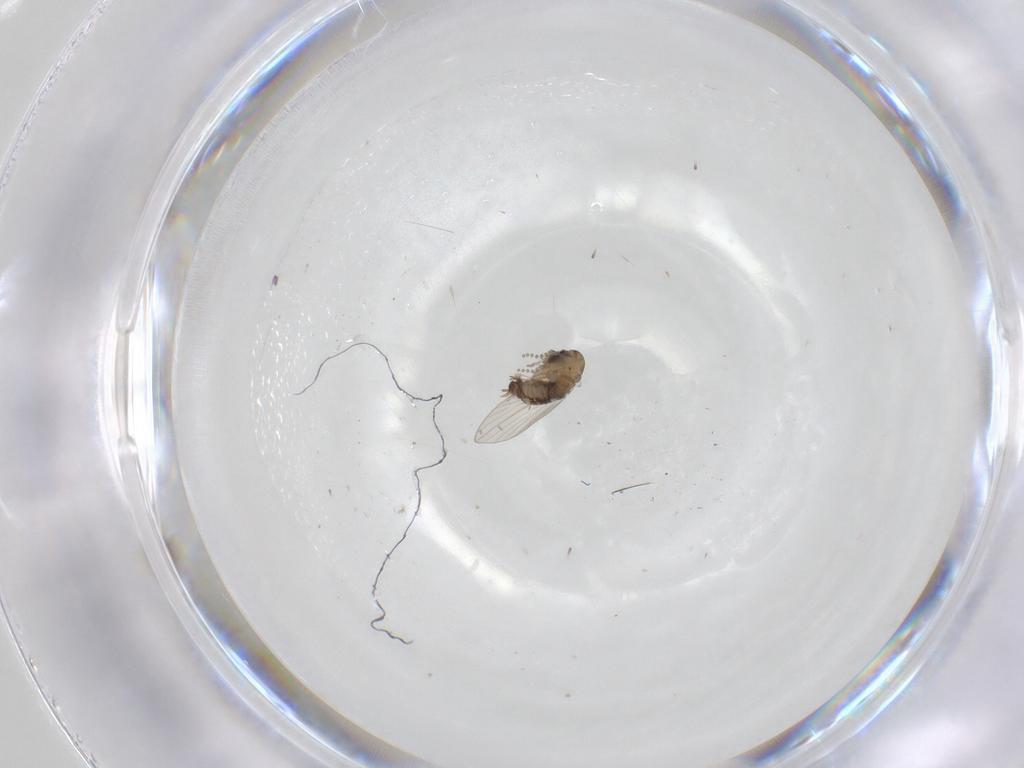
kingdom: Animalia
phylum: Arthropoda
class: Insecta
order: Diptera
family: Psychodidae
